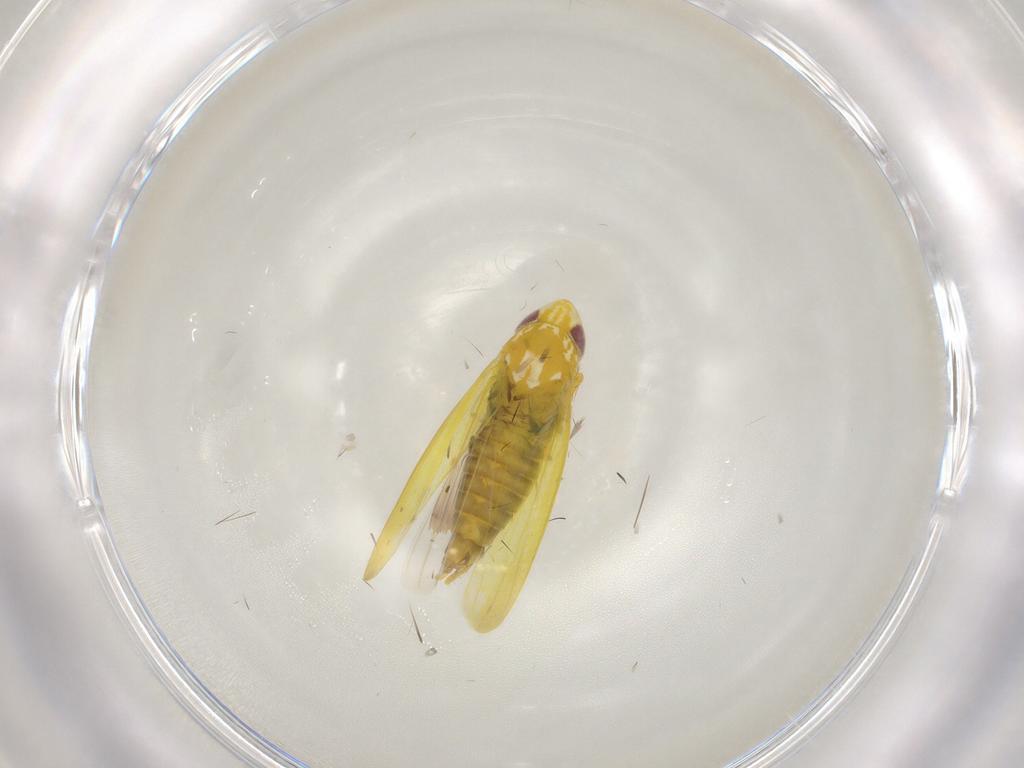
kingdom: Animalia
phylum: Arthropoda
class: Insecta
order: Hemiptera
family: Cicadellidae
